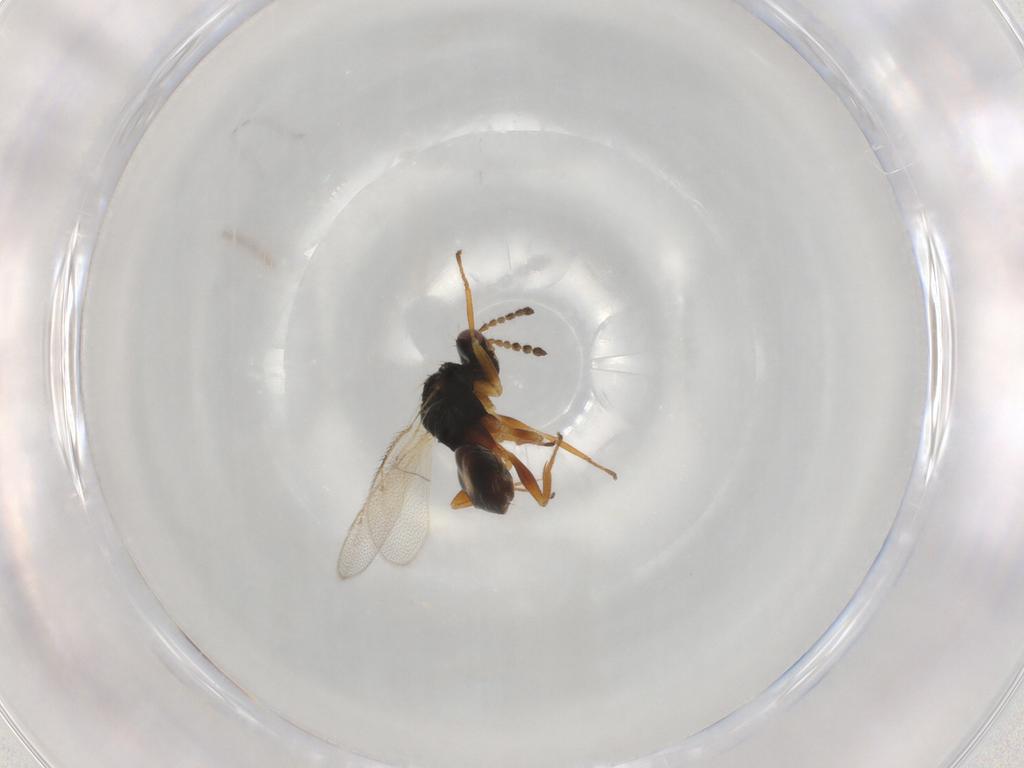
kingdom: Animalia
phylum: Arthropoda
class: Insecta
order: Hymenoptera
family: Eulophidae
